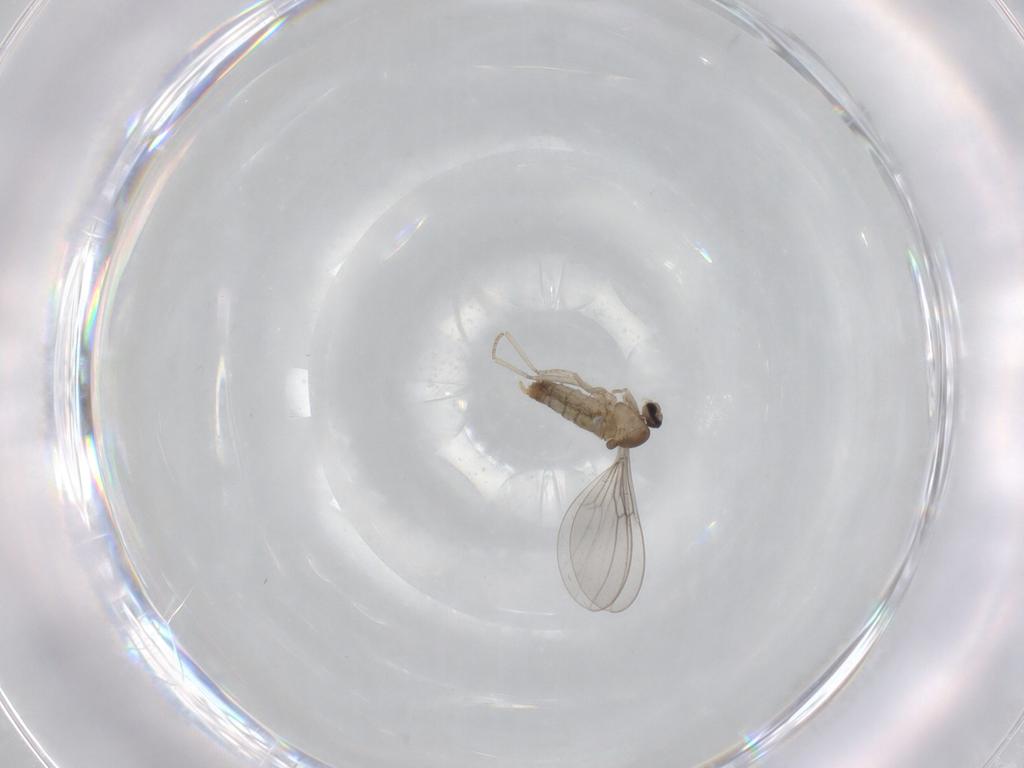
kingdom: Animalia
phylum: Arthropoda
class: Insecta
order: Diptera
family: Cecidomyiidae
